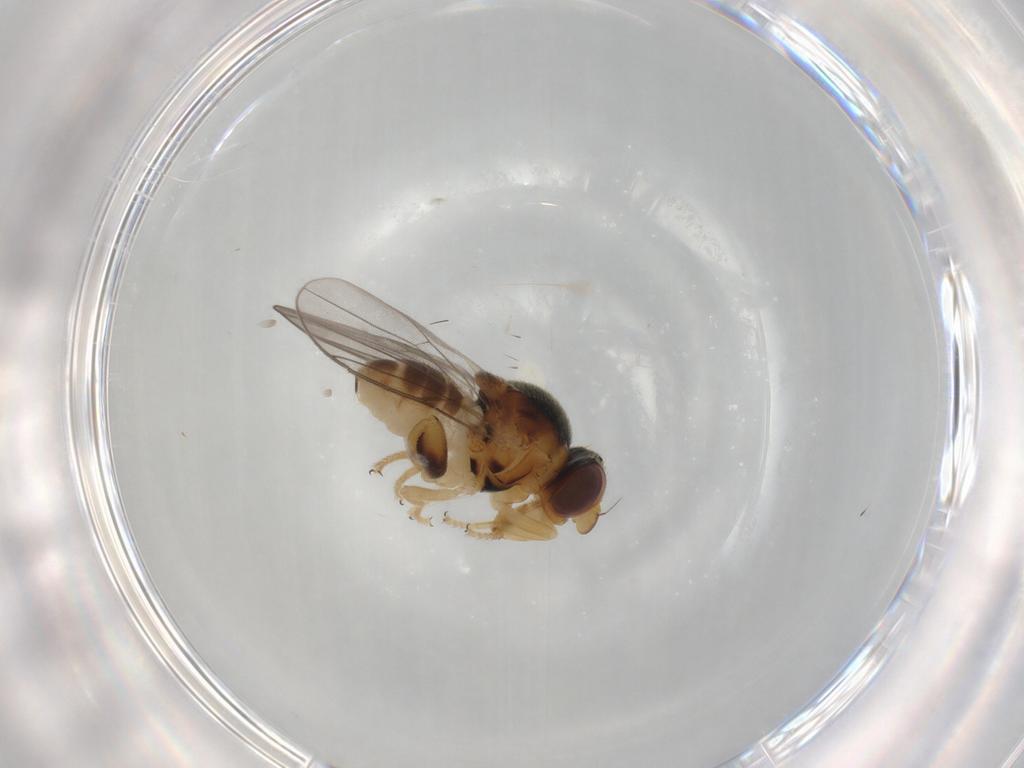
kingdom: Animalia
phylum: Arthropoda
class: Insecta
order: Diptera
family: Chloropidae
